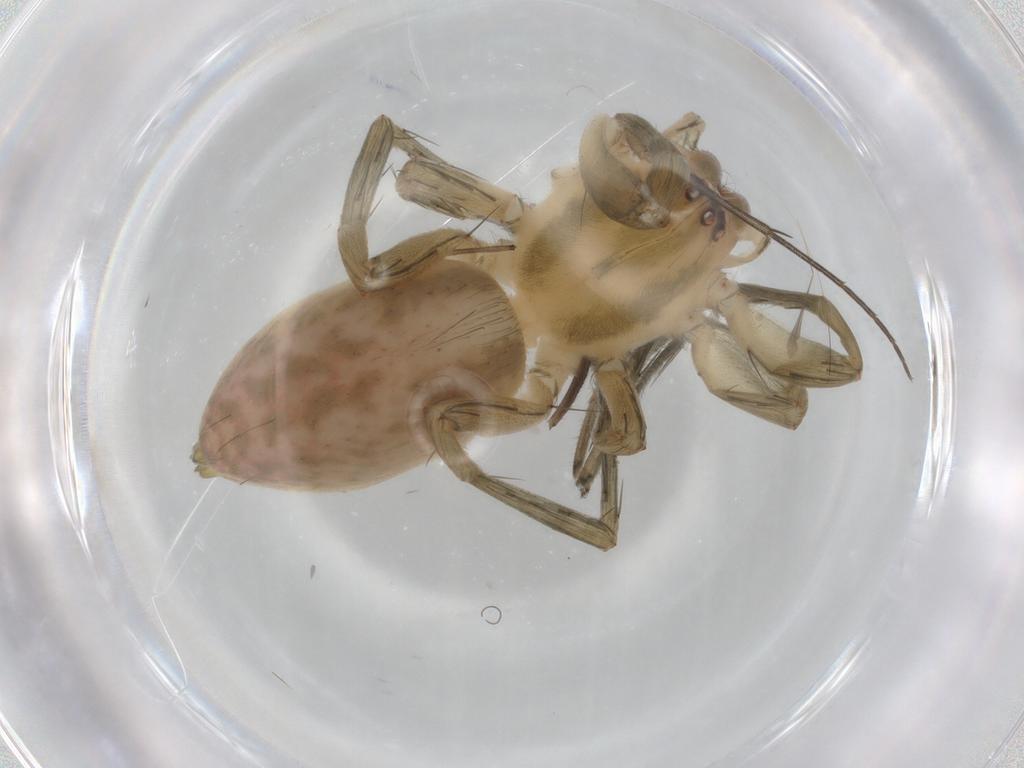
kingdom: Animalia
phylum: Arthropoda
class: Arachnida
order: Araneae
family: Anyphaenidae
